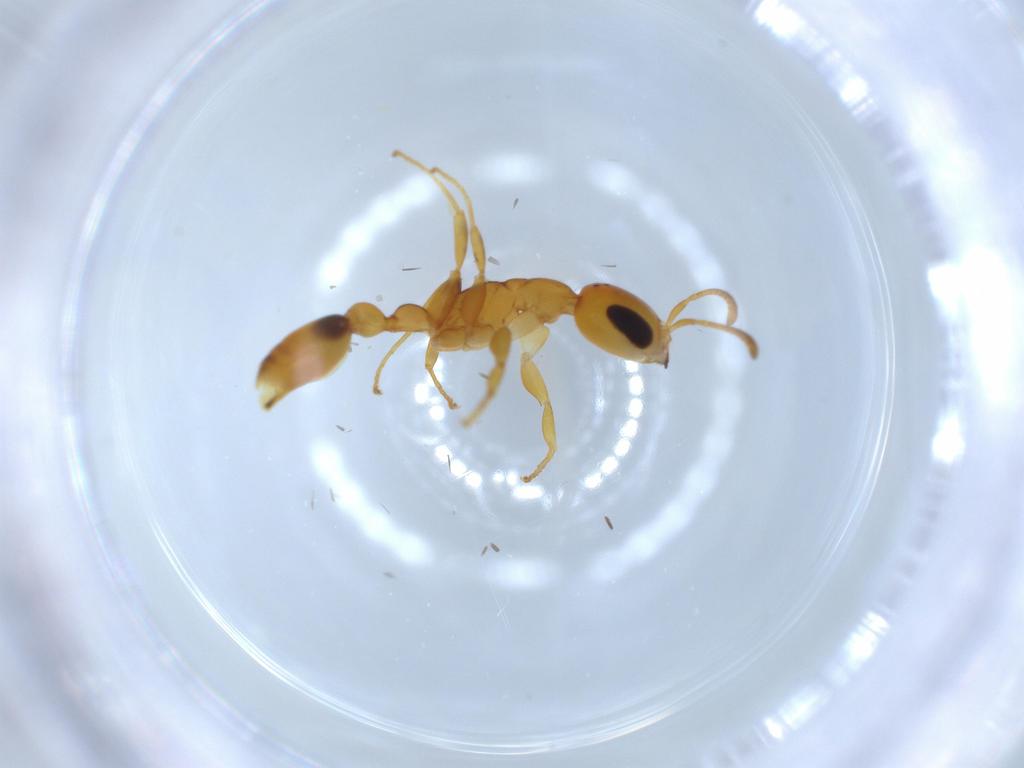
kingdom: Animalia
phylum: Arthropoda
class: Insecta
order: Hymenoptera
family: Formicidae
